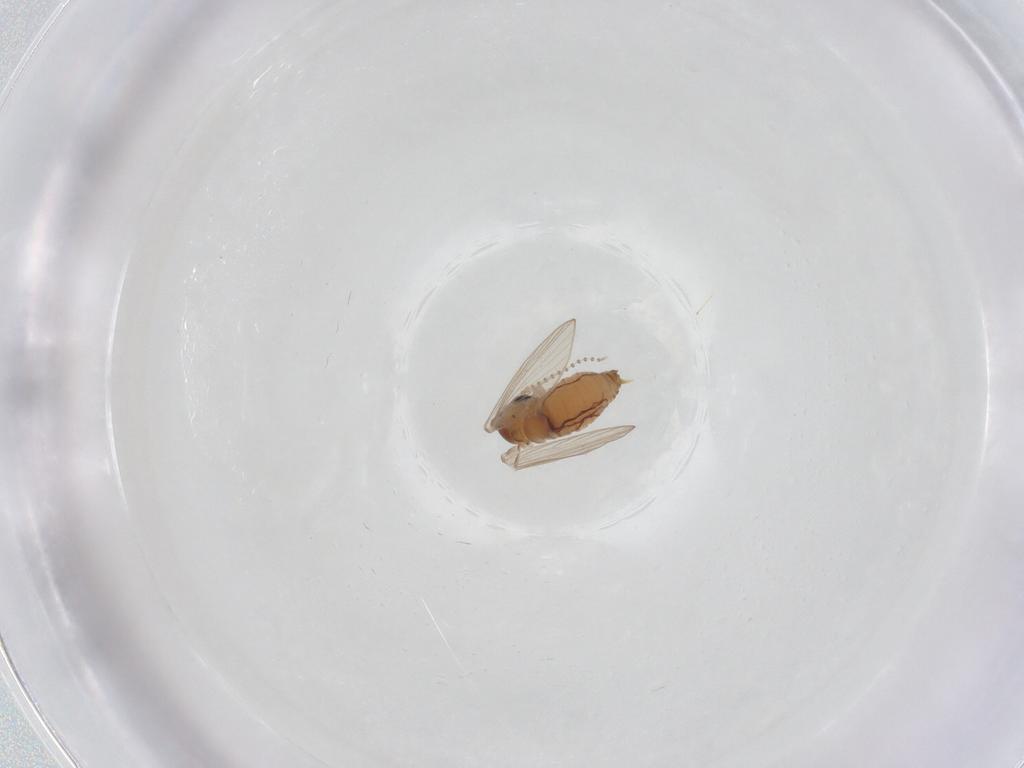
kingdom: Animalia
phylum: Arthropoda
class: Insecta
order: Diptera
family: Psychodidae
